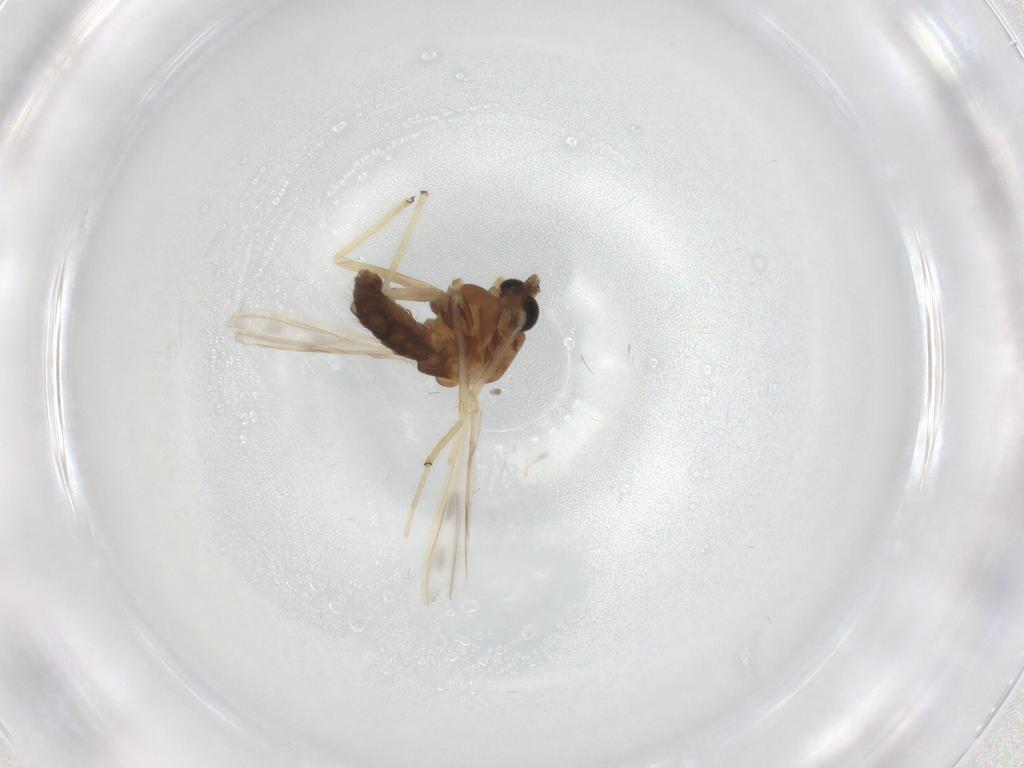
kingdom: Animalia
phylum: Arthropoda
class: Insecta
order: Diptera
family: Chironomidae
